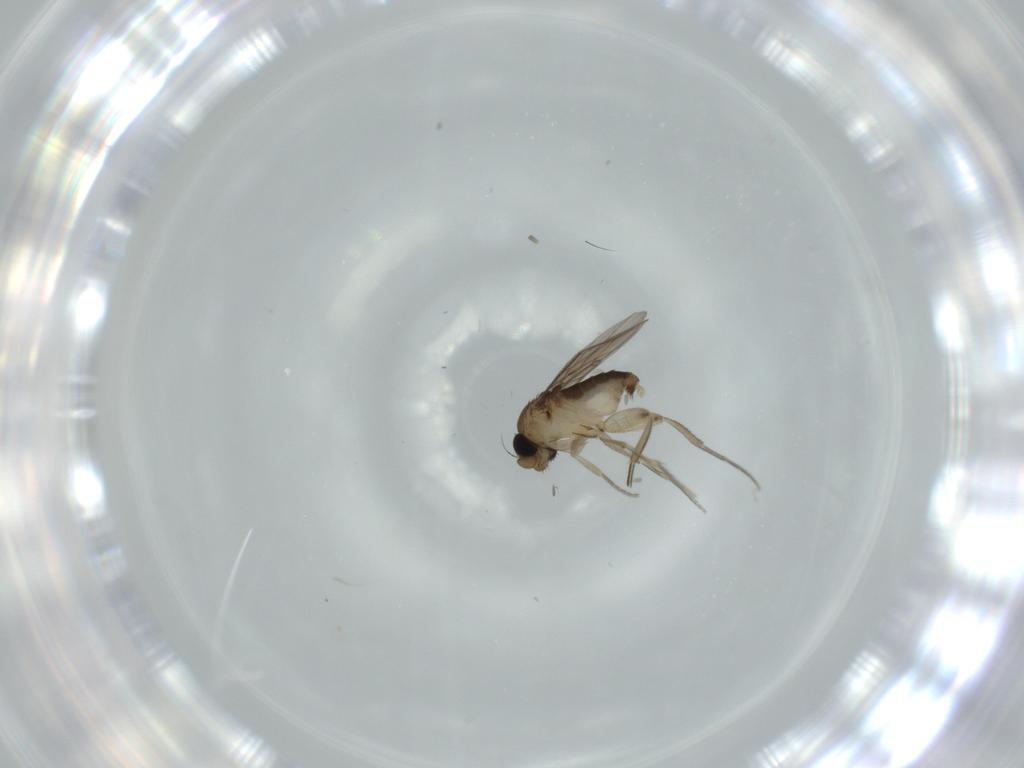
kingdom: Animalia
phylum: Arthropoda
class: Insecta
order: Diptera
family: Phoridae
